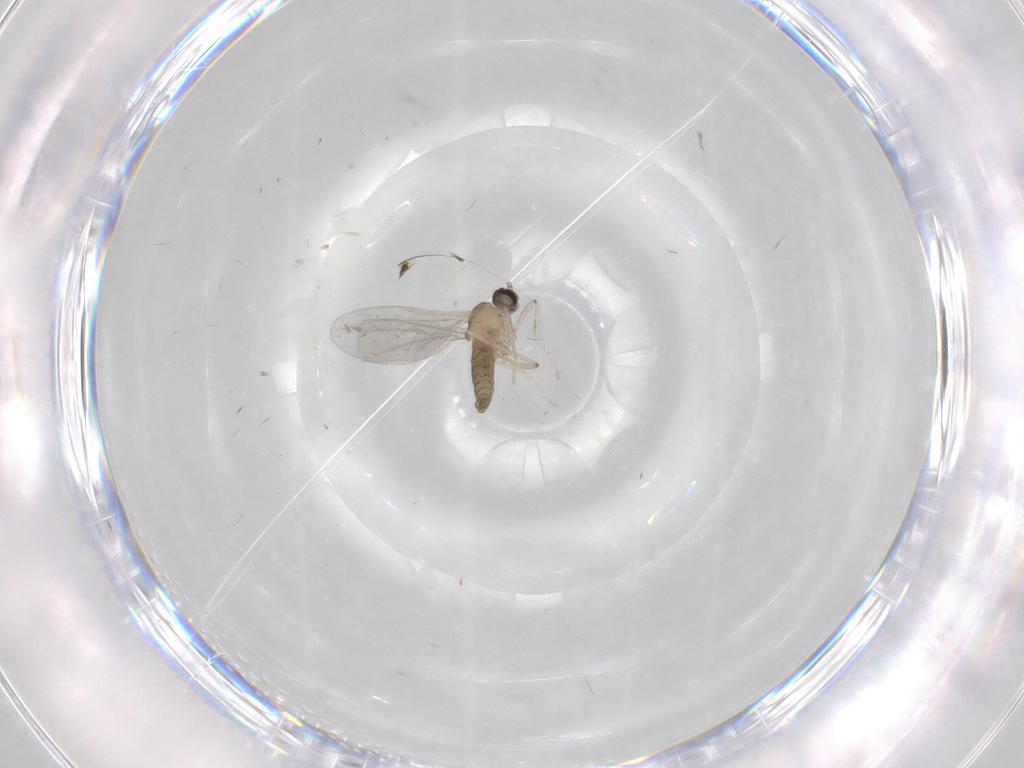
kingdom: Animalia
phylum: Arthropoda
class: Insecta
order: Diptera
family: Cecidomyiidae
